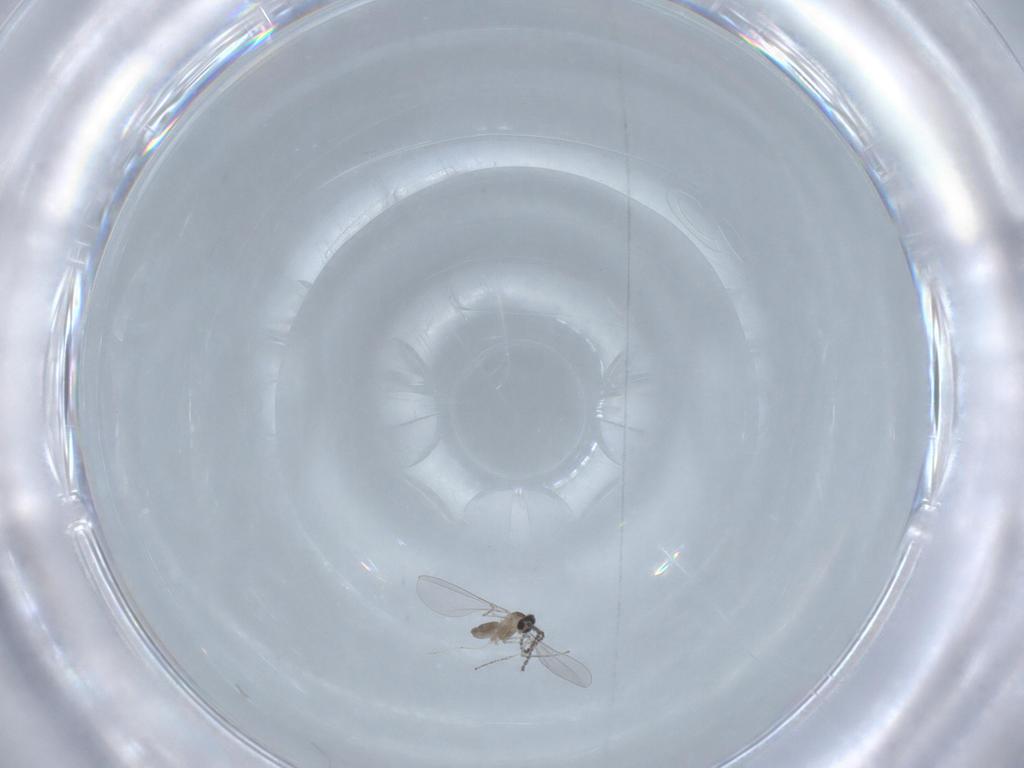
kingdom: Animalia
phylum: Arthropoda
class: Insecta
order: Diptera
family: Cecidomyiidae
